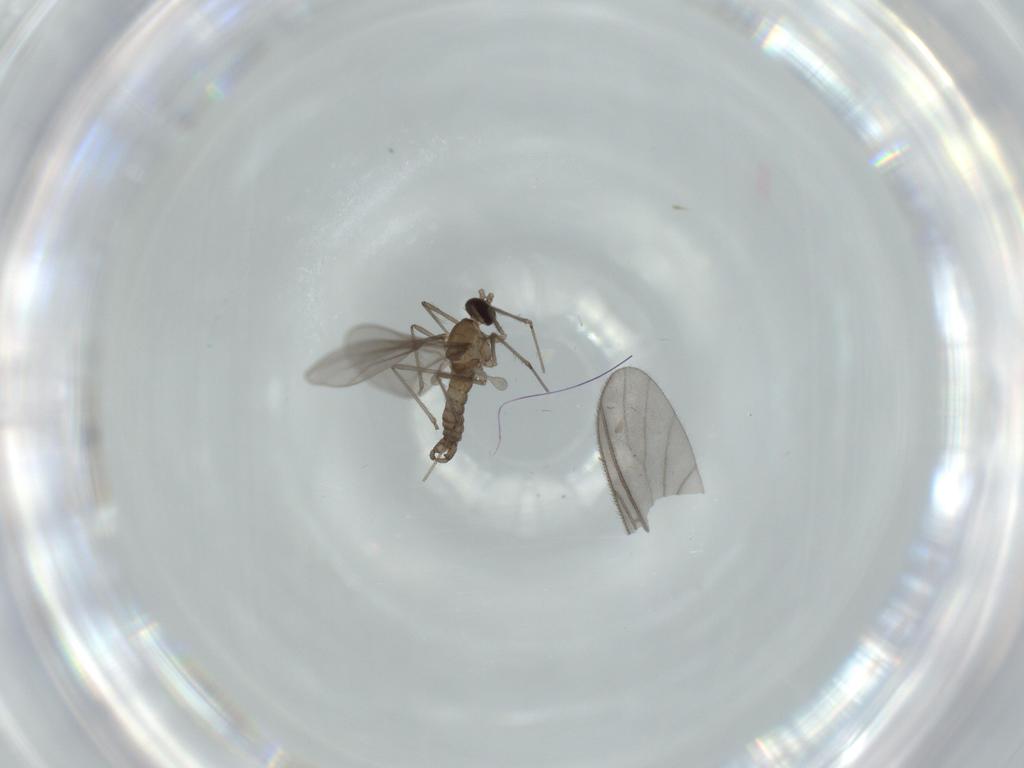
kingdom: Animalia
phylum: Arthropoda
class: Insecta
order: Diptera
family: Cecidomyiidae
